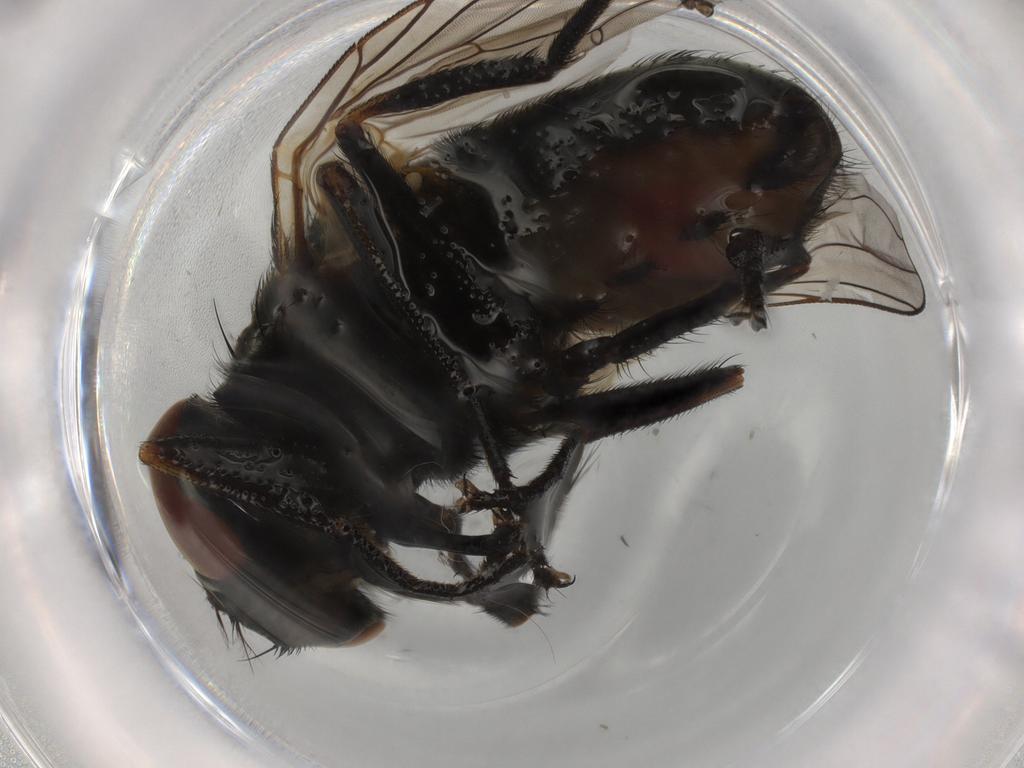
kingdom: Animalia
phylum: Arthropoda
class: Insecta
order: Diptera
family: Muscidae
